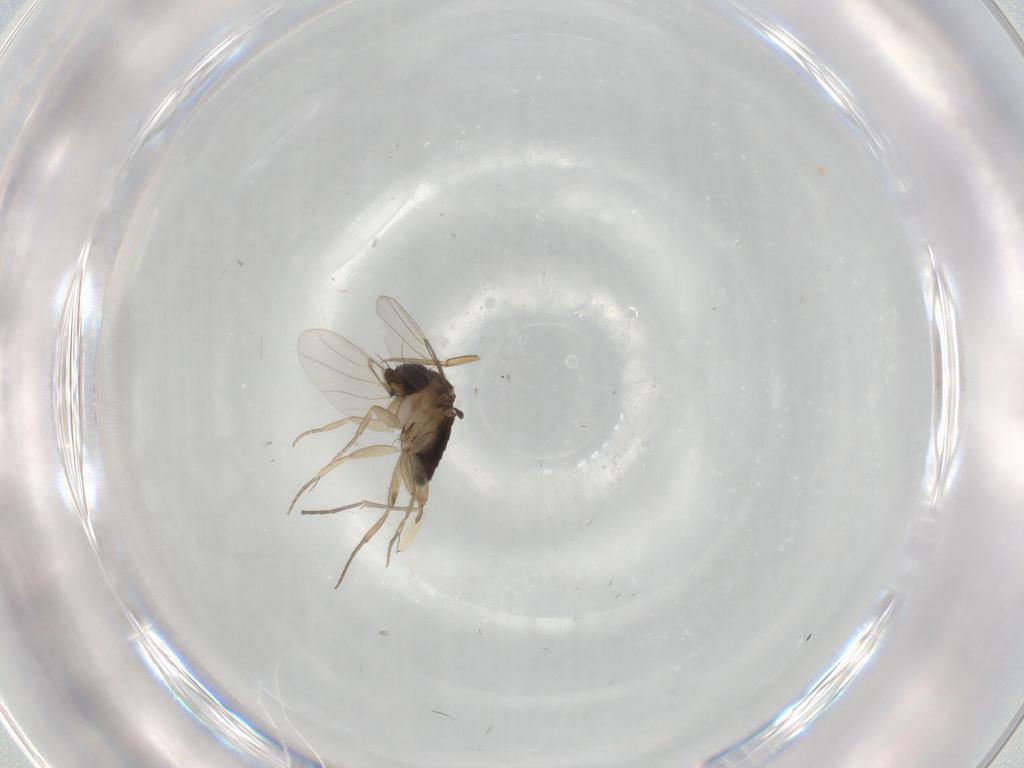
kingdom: Animalia
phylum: Arthropoda
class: Insecta
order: Diptera
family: Phoridae
